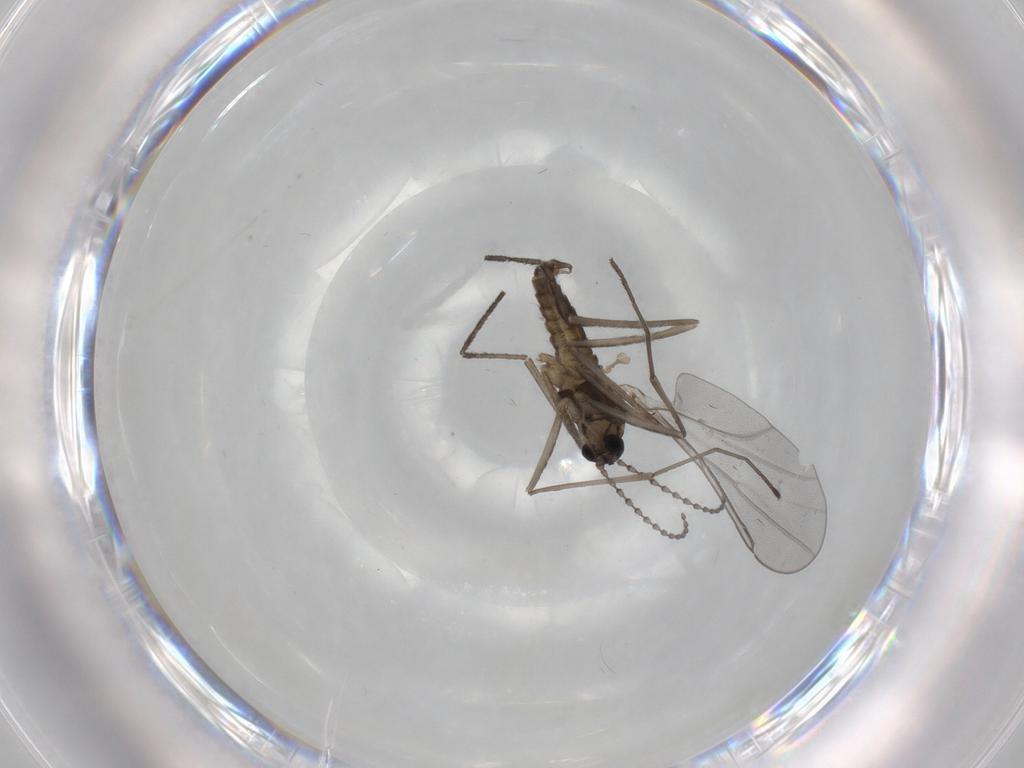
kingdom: Animalia
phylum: Arthropoda
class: Insecta
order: Diptera
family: Cecidomyiidae
